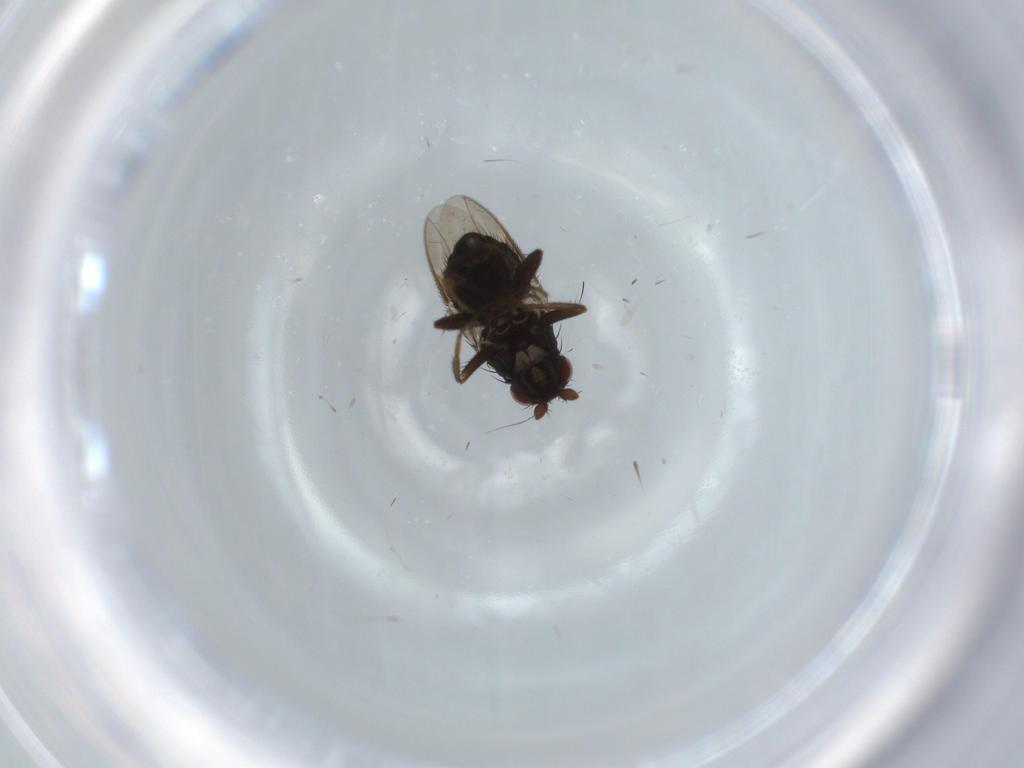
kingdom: Animalia
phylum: Arthropoda
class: Insecta
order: Diptera
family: Sphaeroceridae
